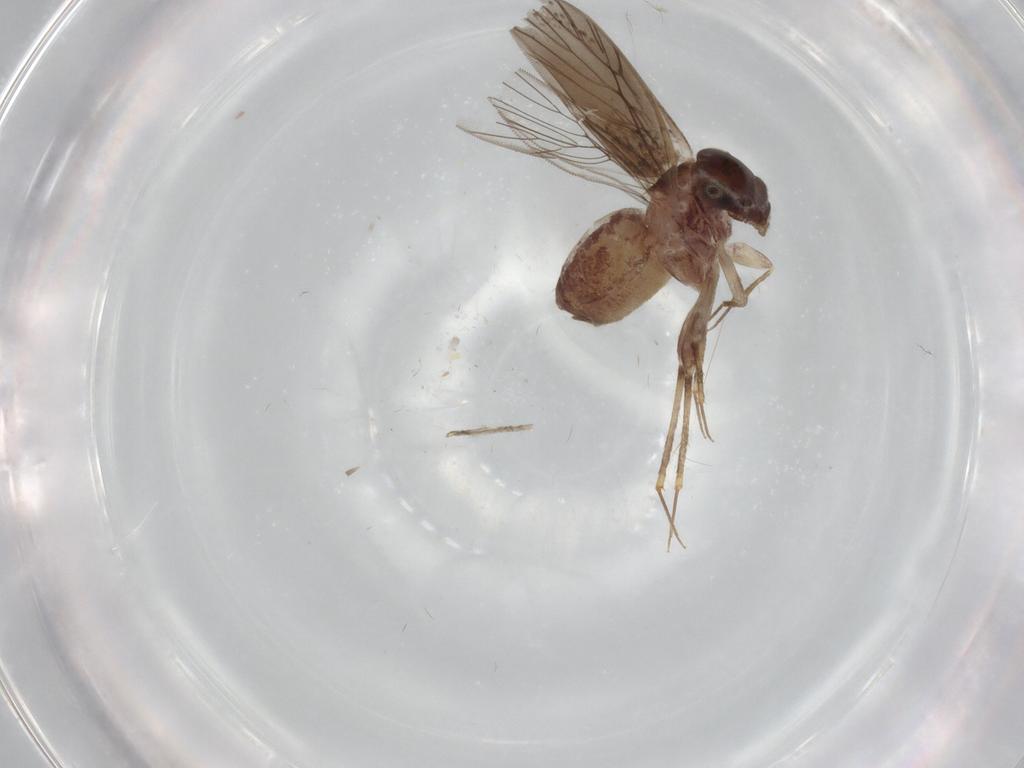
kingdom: Animalia
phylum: Arthropoda
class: Insecta
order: Psocodea
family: Lepidopsocidae
